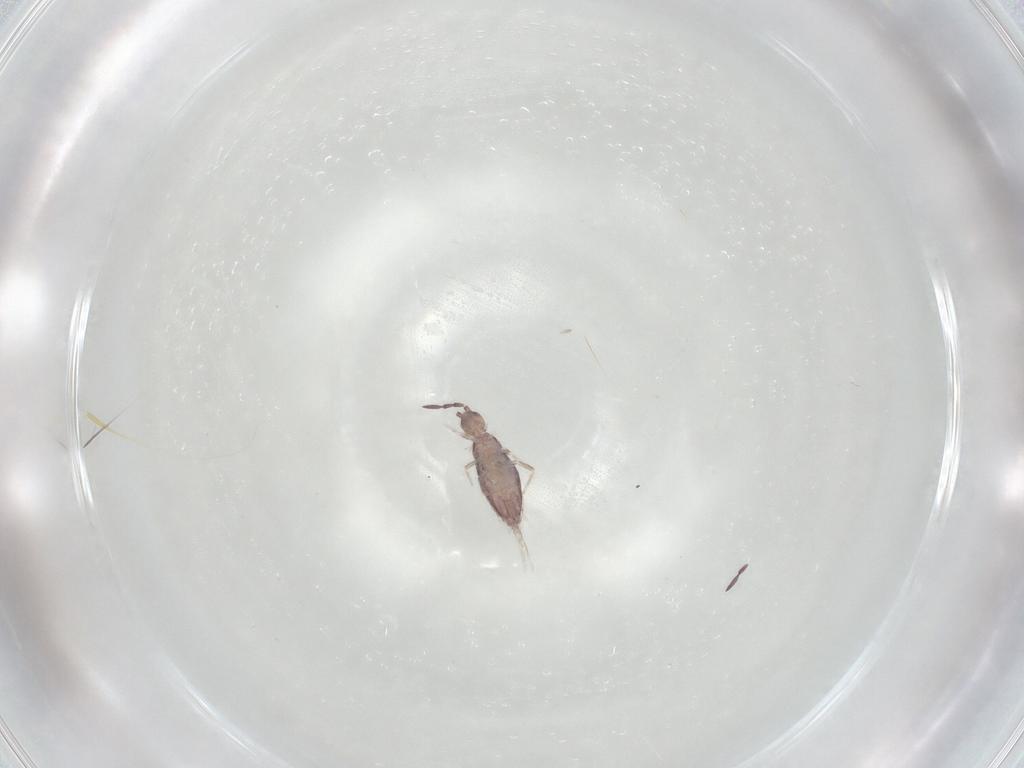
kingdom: Animalia
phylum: Arthropoda
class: Collembola
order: Entomobryomorpha
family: Entomobryidae
